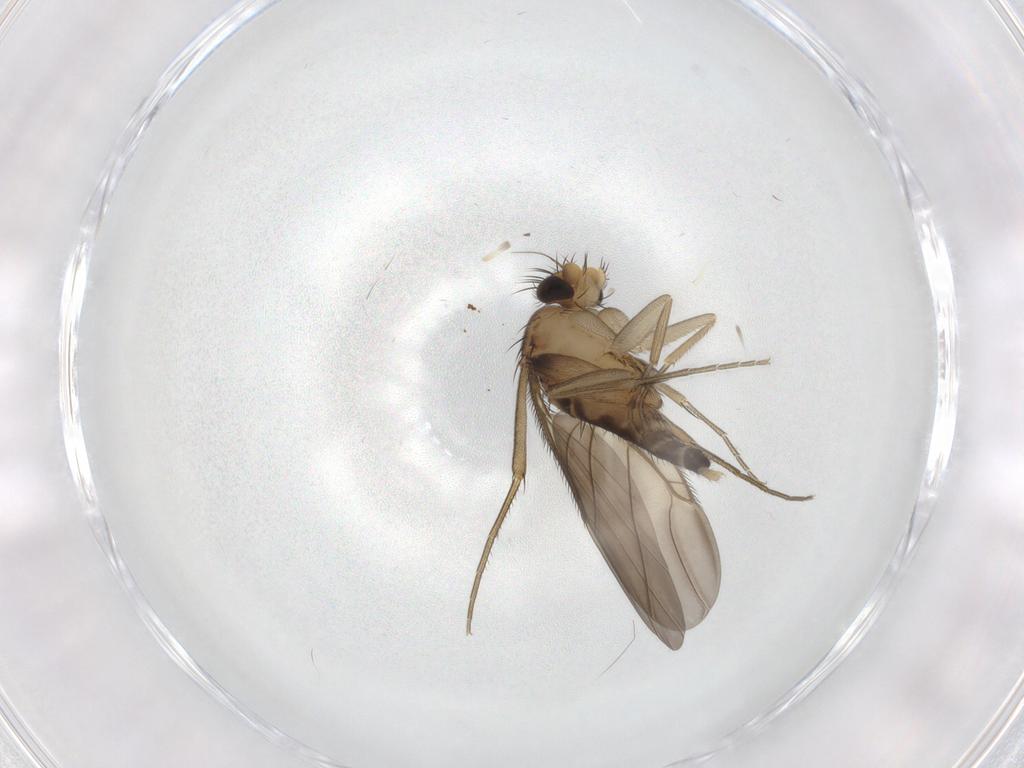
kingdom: Animalia
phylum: Arthropoda
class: Insecta
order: Diptera
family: Phoridae
